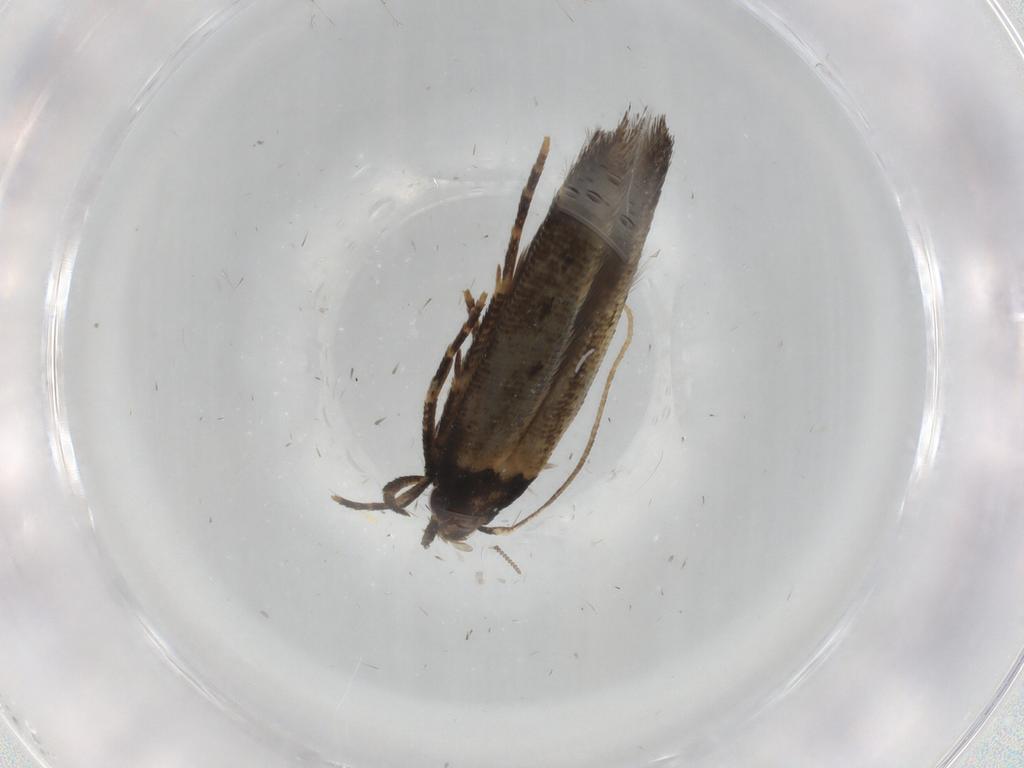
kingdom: Animalia
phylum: Arthropoda
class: Insecta
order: Lepidoptera
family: Cosmopterigidae
